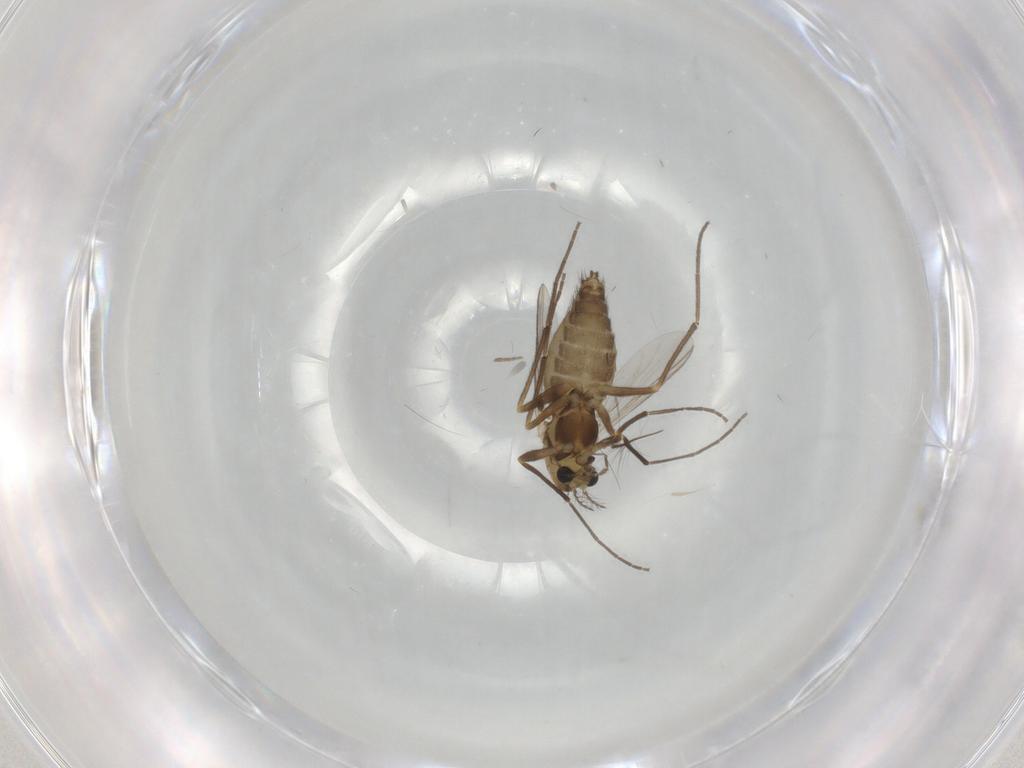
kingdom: Animalia
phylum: Arthropoda
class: Insecta
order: Diptera
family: Chironomidae
